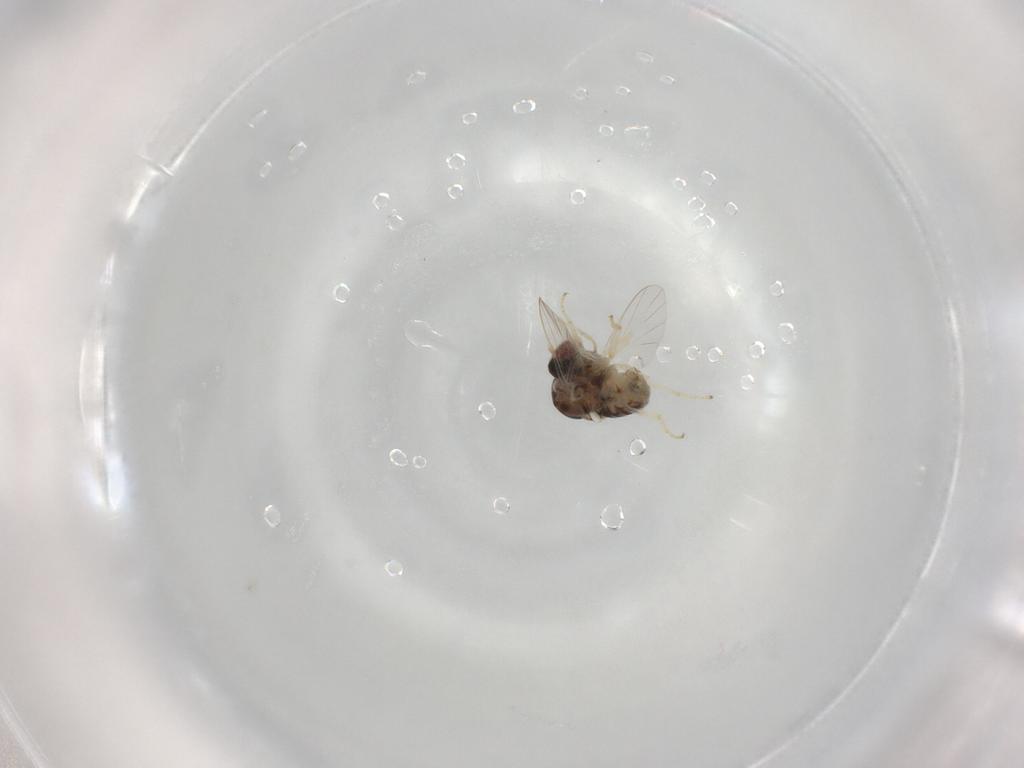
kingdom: Animalia
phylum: Arthropoda
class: Insecta
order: Diptera
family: Bombyliidae
